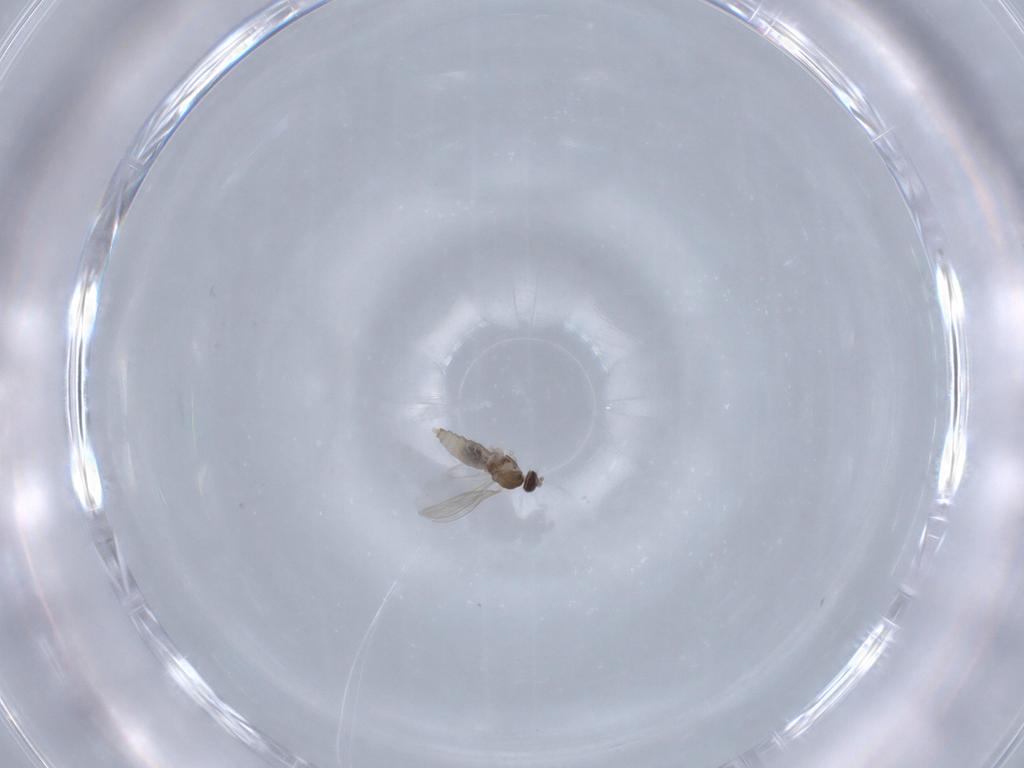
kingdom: Animalia
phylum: Arthropoda
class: Insecta
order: Diptera
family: Cecidomyiidae
